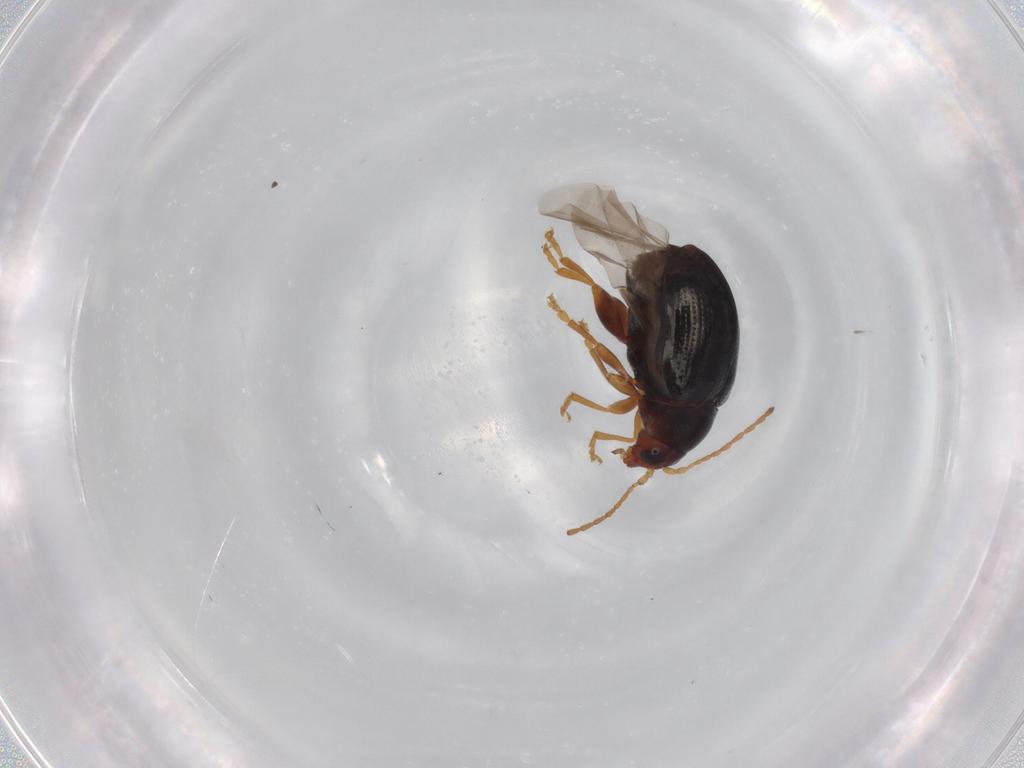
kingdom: Animalia
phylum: Arthropoda
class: Insecta
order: Coleoptera
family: Chrysomelidae
